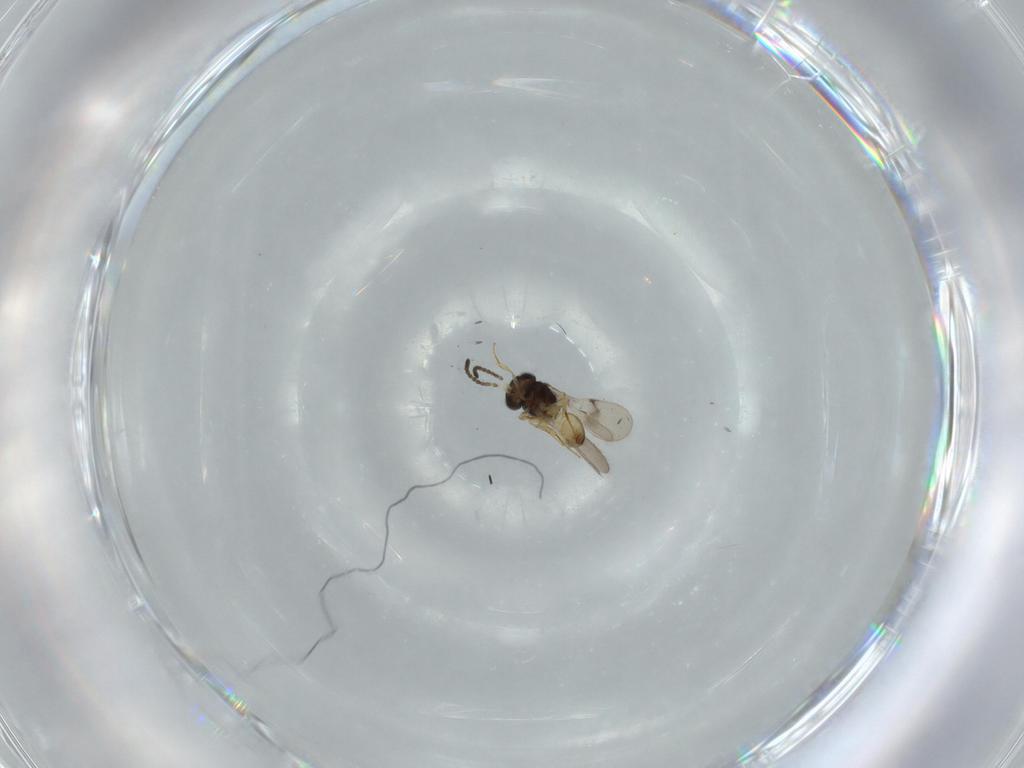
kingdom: Animalia
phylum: Arthropoda
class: Insecta
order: Hymenoptera
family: Scelionidae
